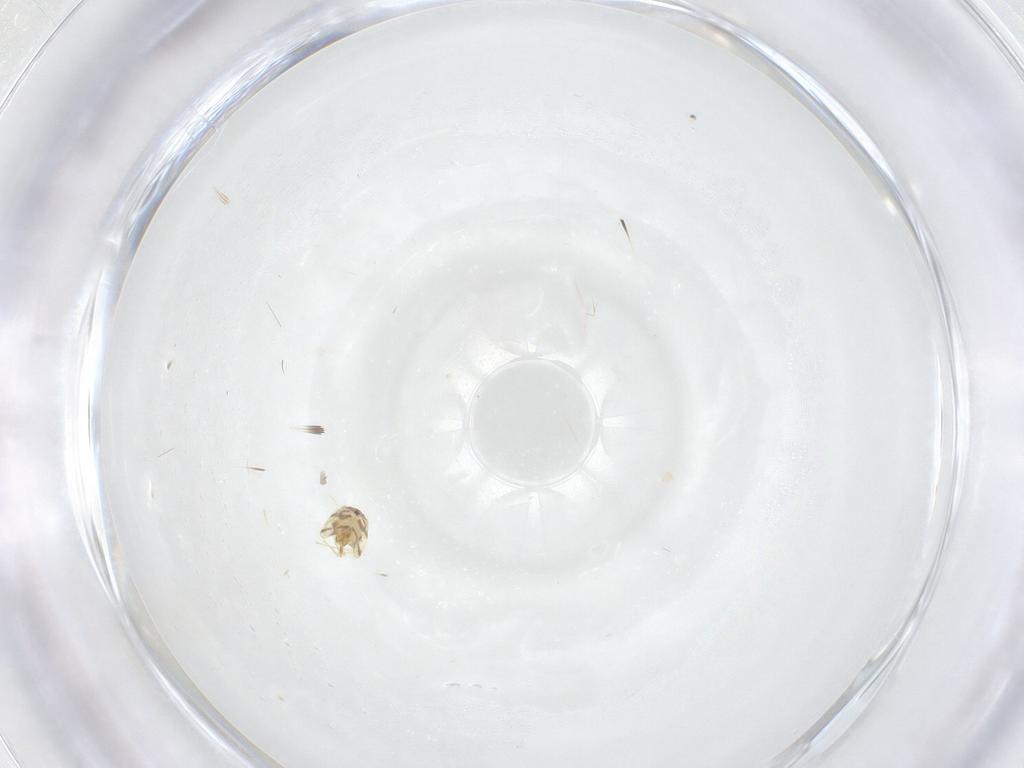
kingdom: Animalia
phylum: Arthropoda
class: Insecta
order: Hemiptera
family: Aleyrodidae
